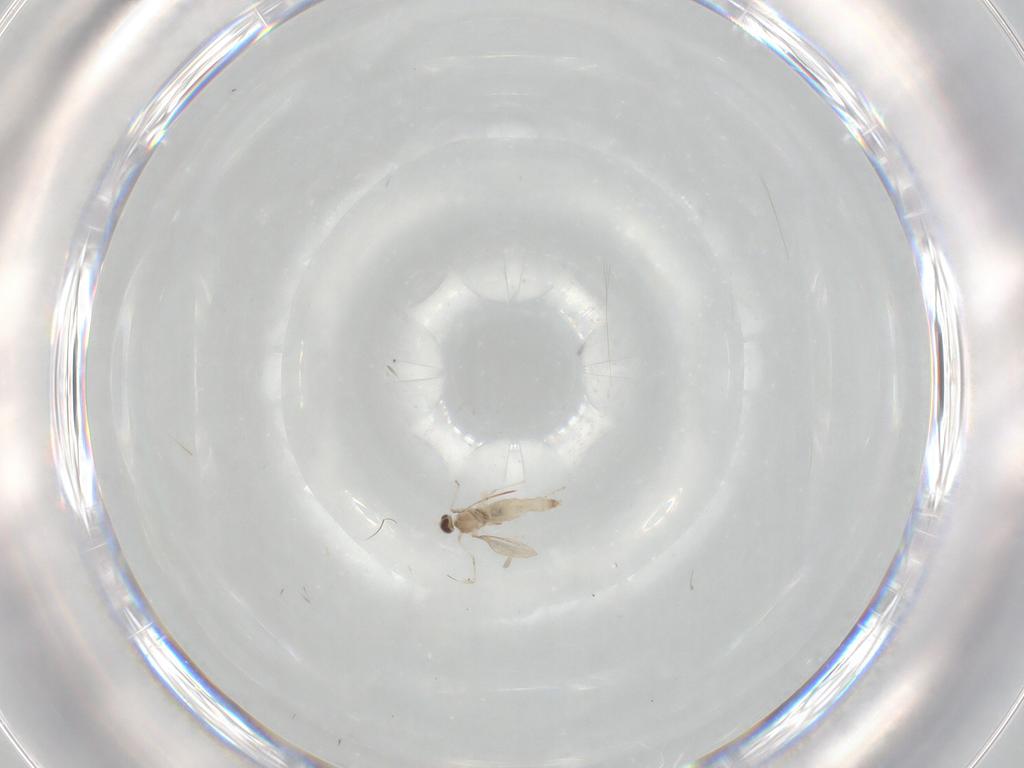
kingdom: Animalia
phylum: Arthropoda
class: Insecta
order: Diptera
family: Cecidomyiidae
